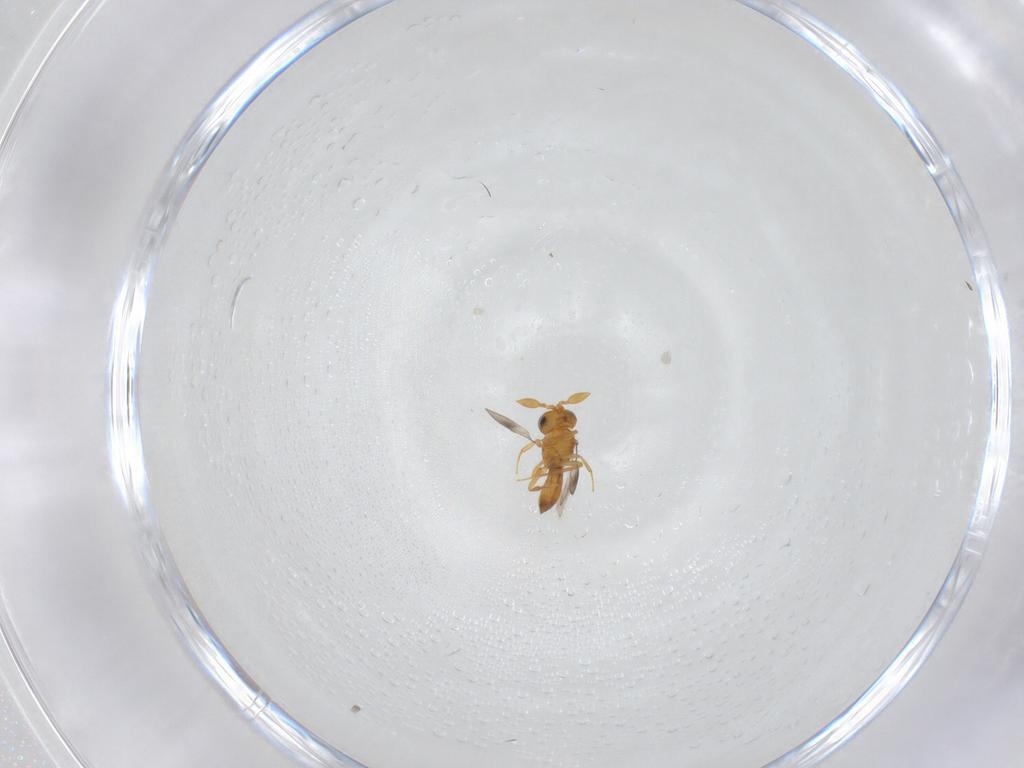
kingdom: Animalia
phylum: Arthropoda
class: Insecta
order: Hymenoptera
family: Scelionidae
